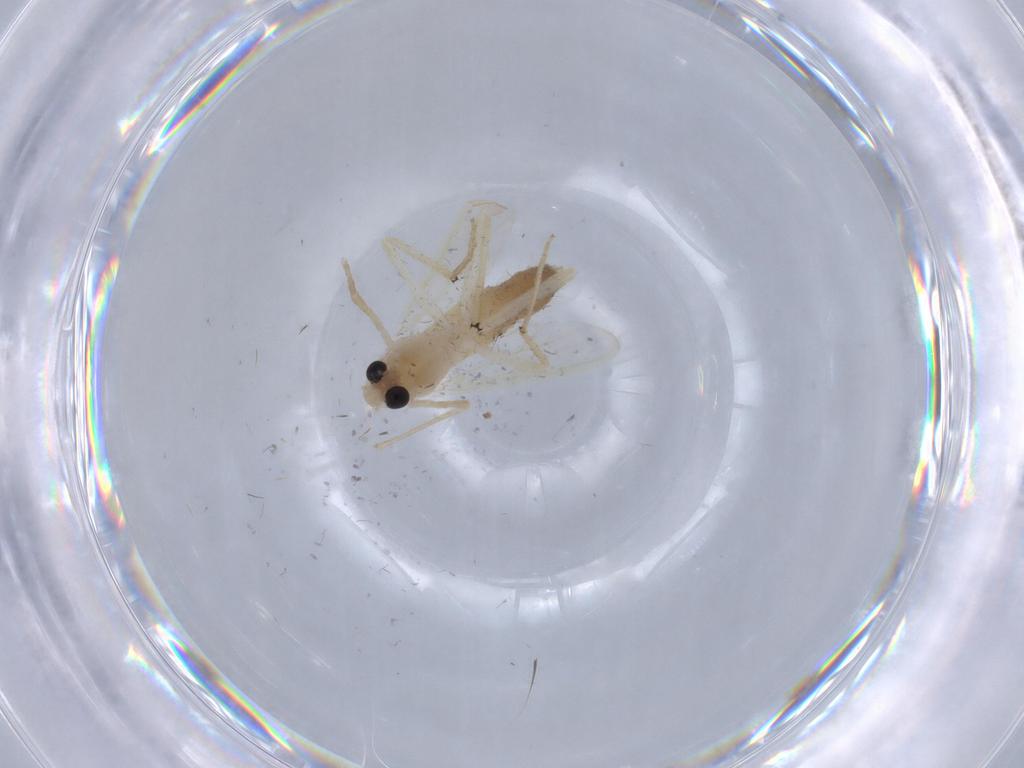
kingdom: Animalia
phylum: Arthropoda
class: Insecta
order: Diptera
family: Chironomidae
